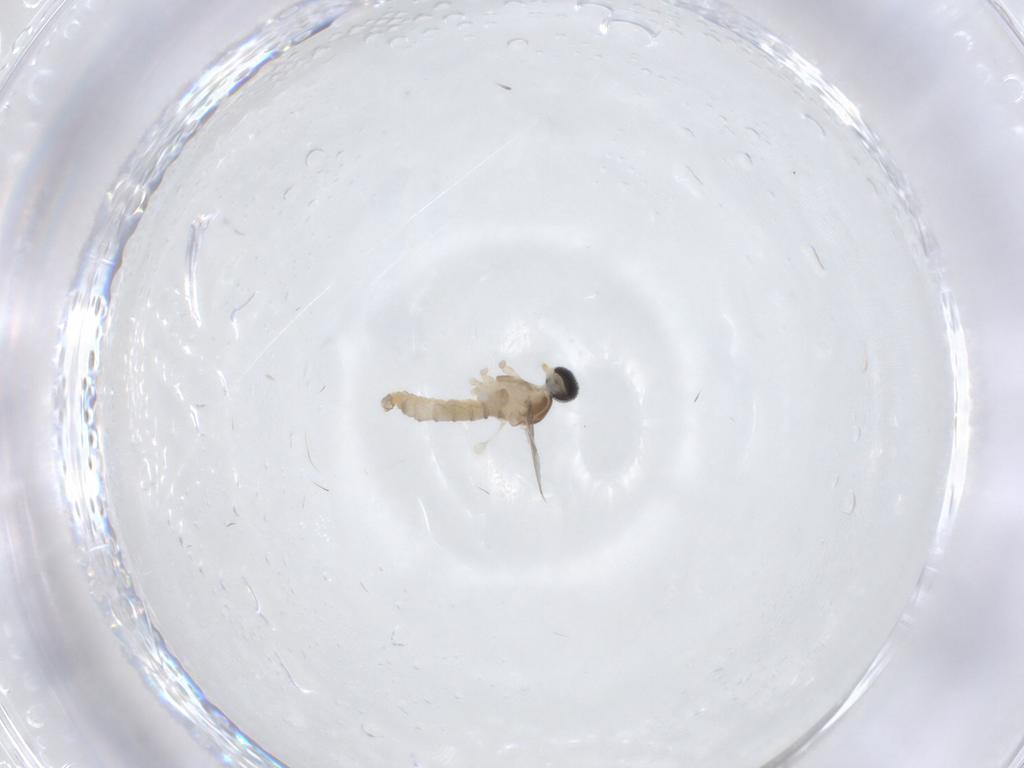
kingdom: Animalia
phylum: Arthropoda
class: Insecta
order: Diptera
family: Cecidomyiidae
